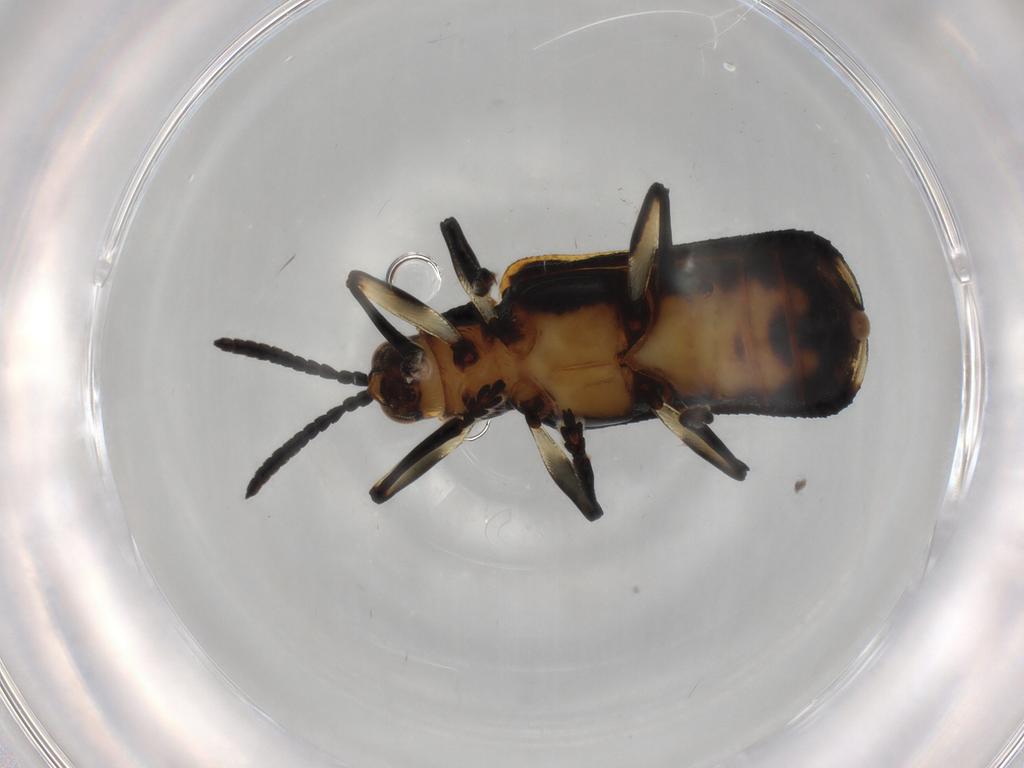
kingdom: Animalia
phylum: Arthropoda
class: Insecta
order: Coleoptera
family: Chrysomelidae
